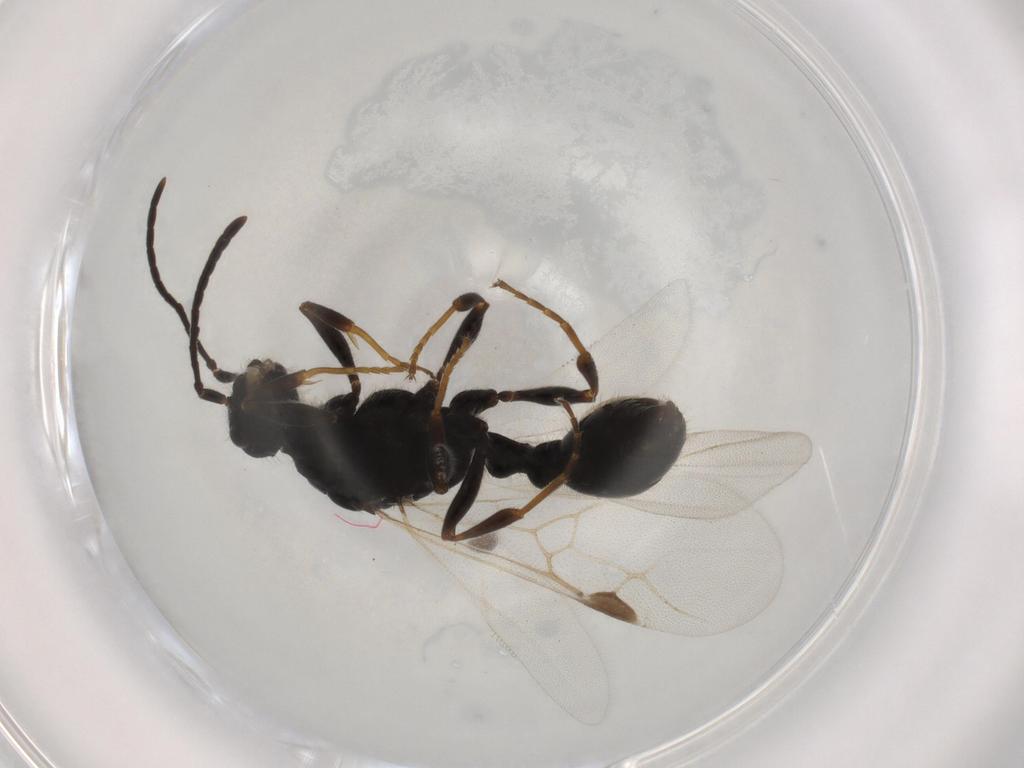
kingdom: Animalia
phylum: Arthropoda
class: Insecta
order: Hymenoptera
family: Formicidae
